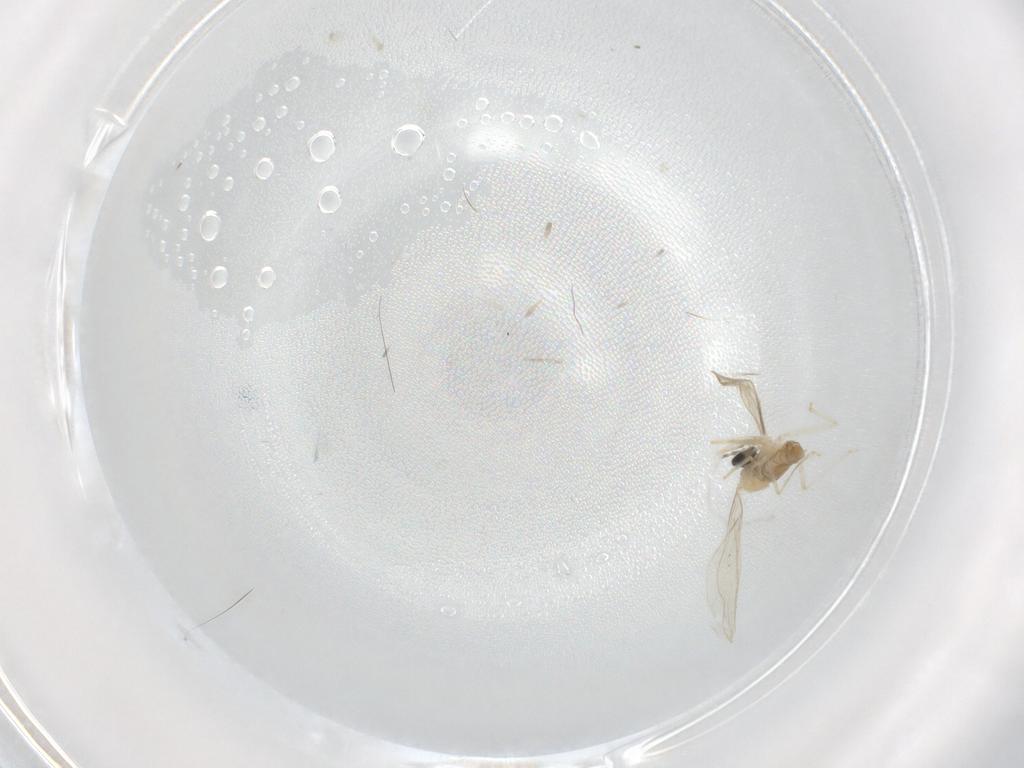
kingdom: Animalia
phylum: Arthropoda
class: Insecta
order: Diptera
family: Cecidomyiidae
